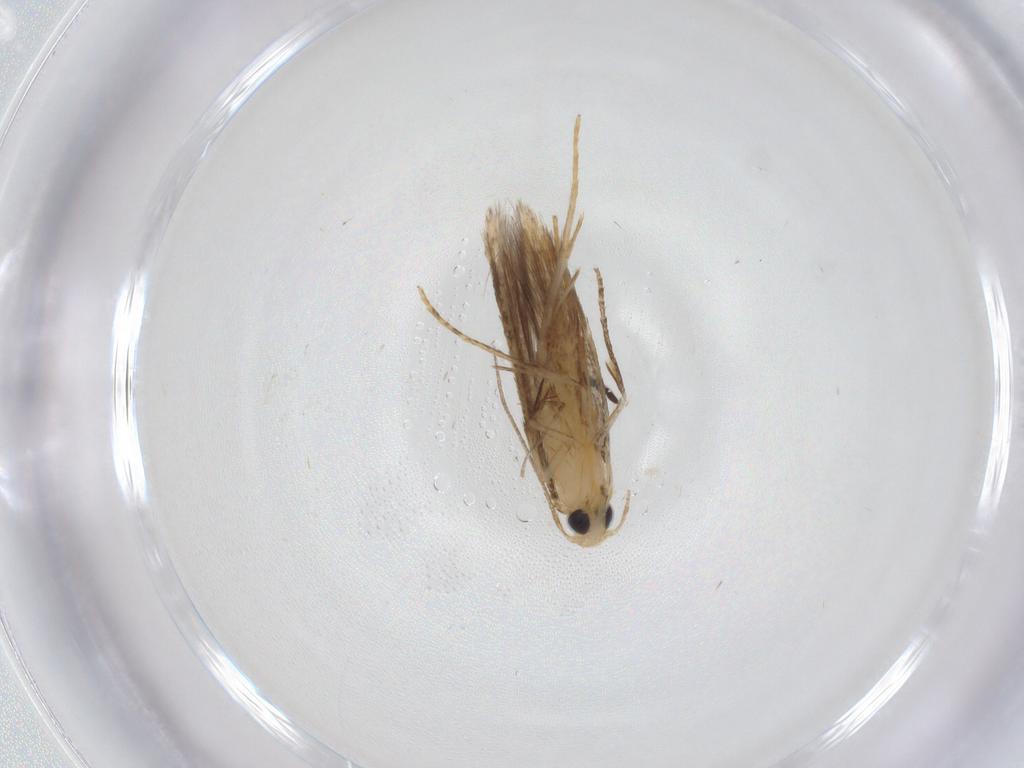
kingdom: Animalia
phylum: Arthropoda
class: Insecta
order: Lepidoptera
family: Tischeriidae
